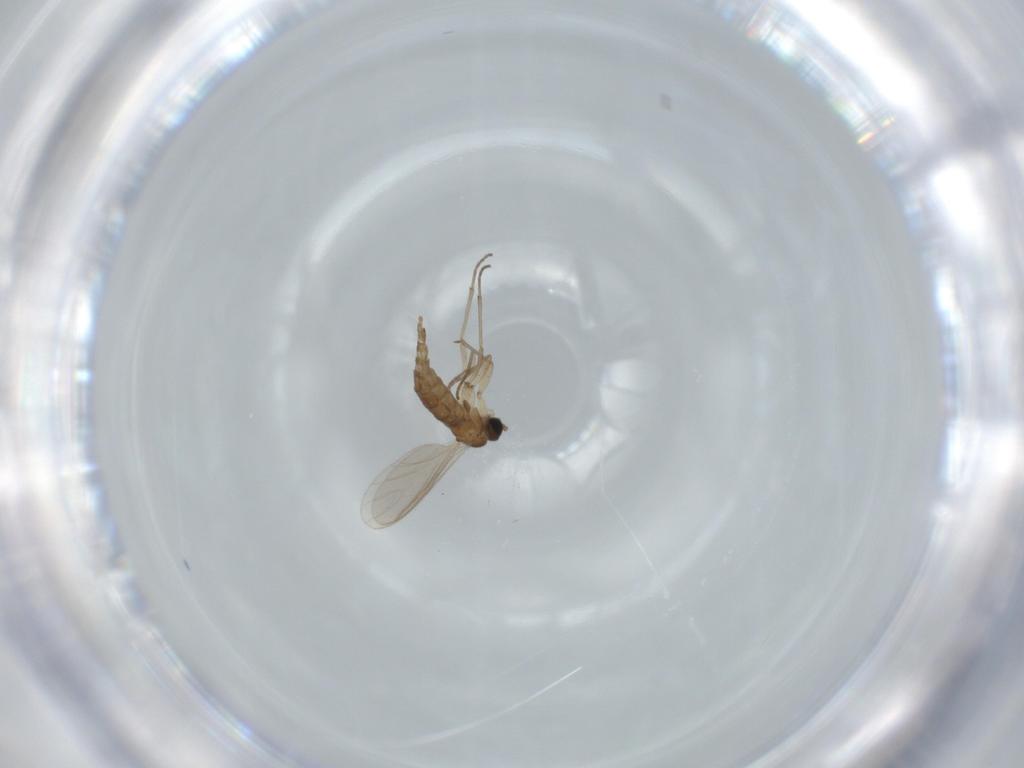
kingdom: Animalia
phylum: Arthropoda
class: Insecta
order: Diptera
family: Sciaridae
